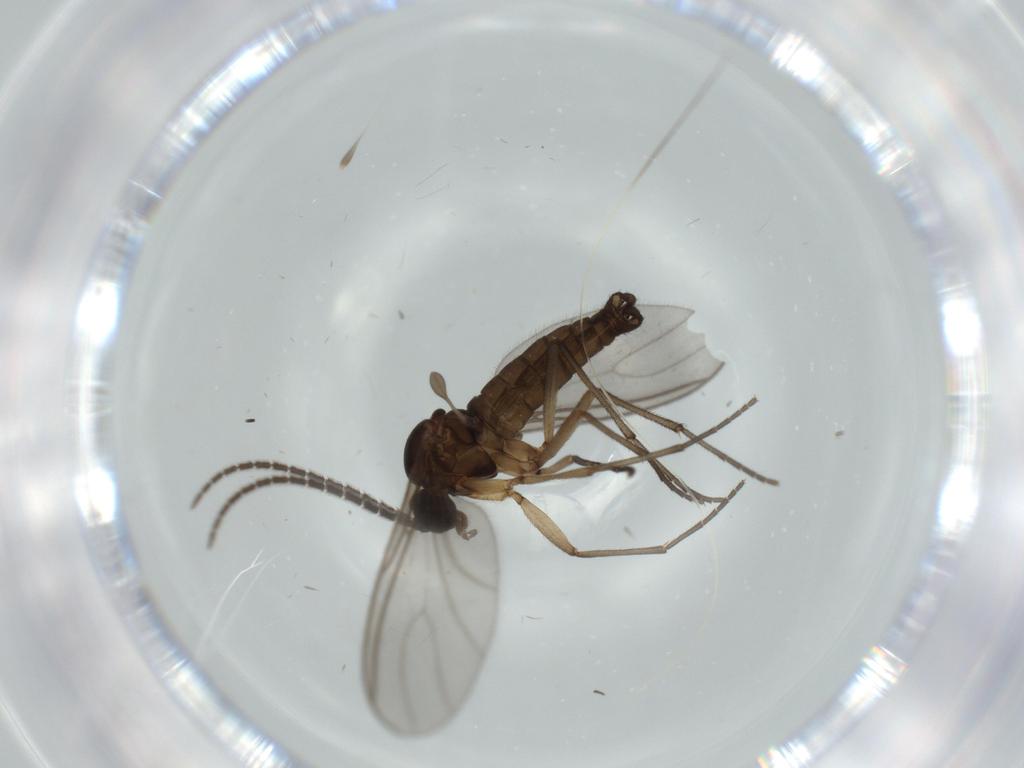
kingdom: Animalia
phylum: Arthropoda
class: Insecta
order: Diptera
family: Sciaridae
